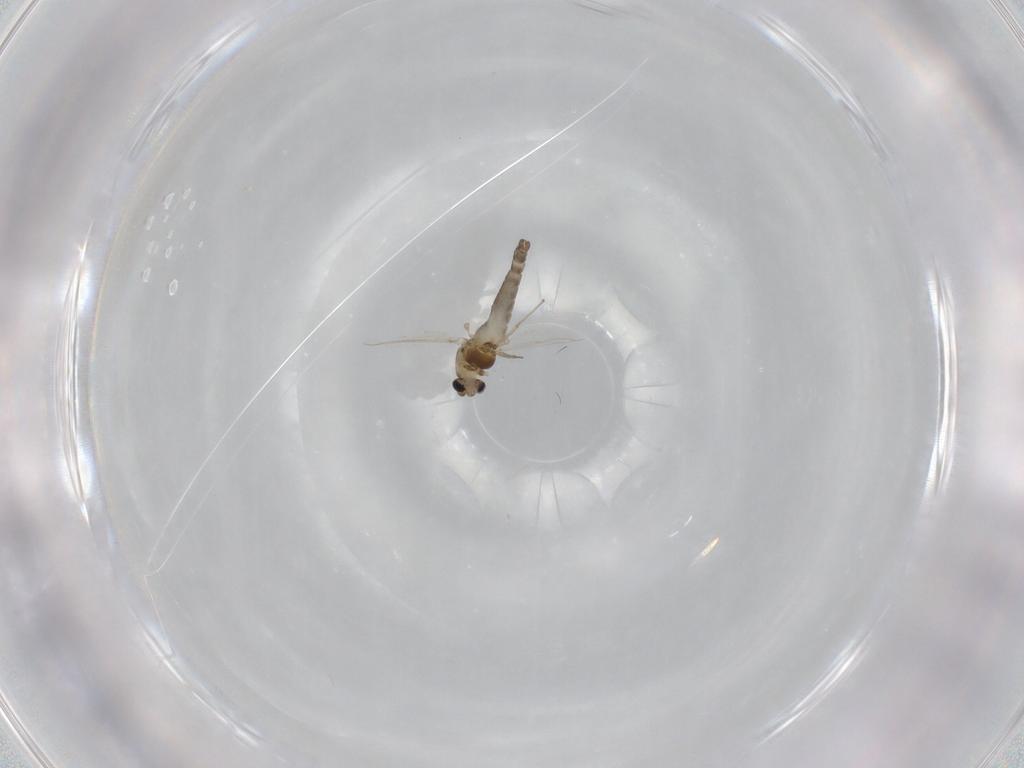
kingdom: Animalia
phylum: Arthropoda
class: Insecta
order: Diptera
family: Chironomidae
